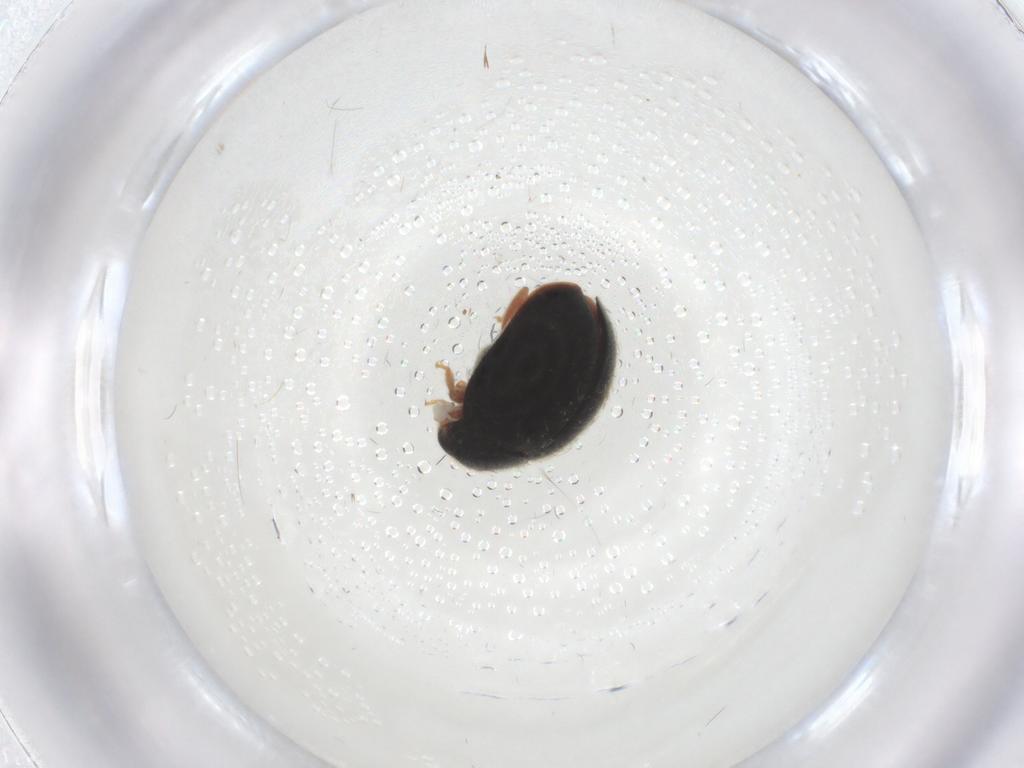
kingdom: Animalia
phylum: Arthropoda
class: Insecta
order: Coleoptera
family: Coccinellidae
